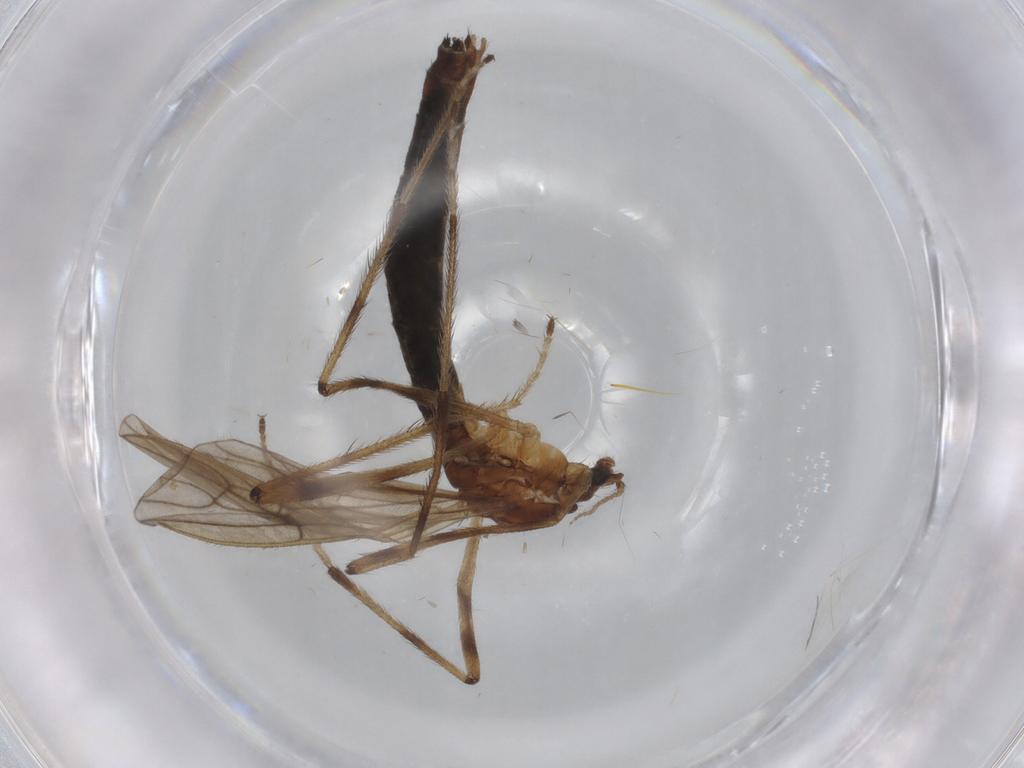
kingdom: Animalia
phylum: Arthropoda
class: Insecta
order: Diptera
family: Limoniidae
